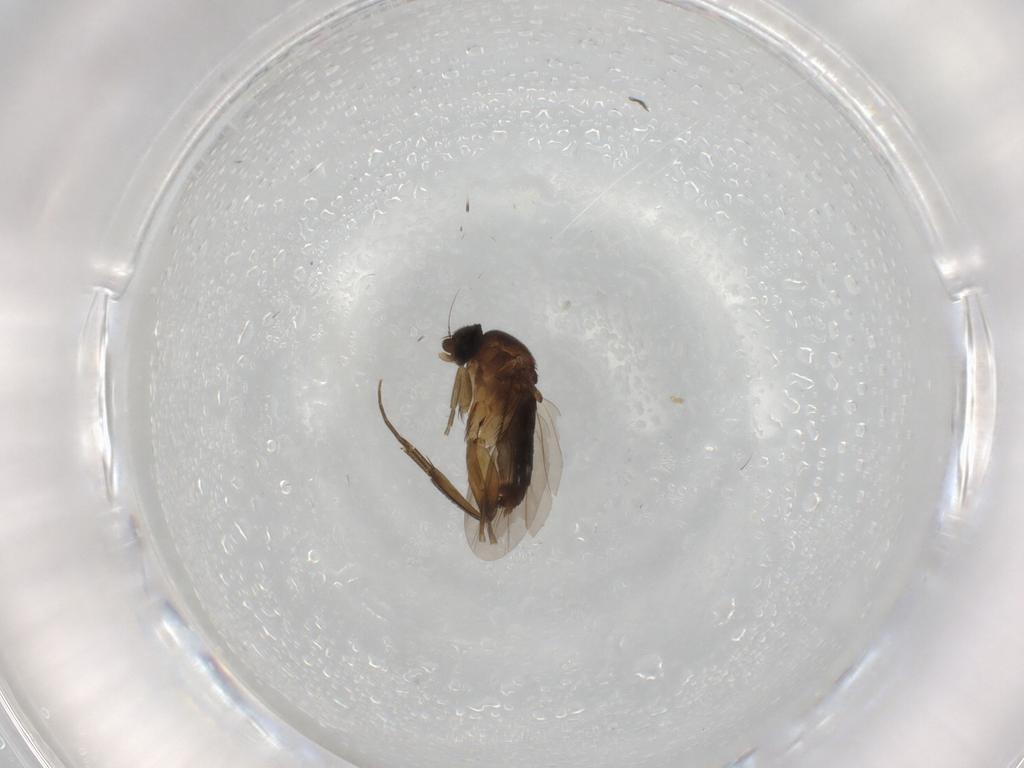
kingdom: Animalia
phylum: Arthropoda
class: Insecta
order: Diptera
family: Phoridae
